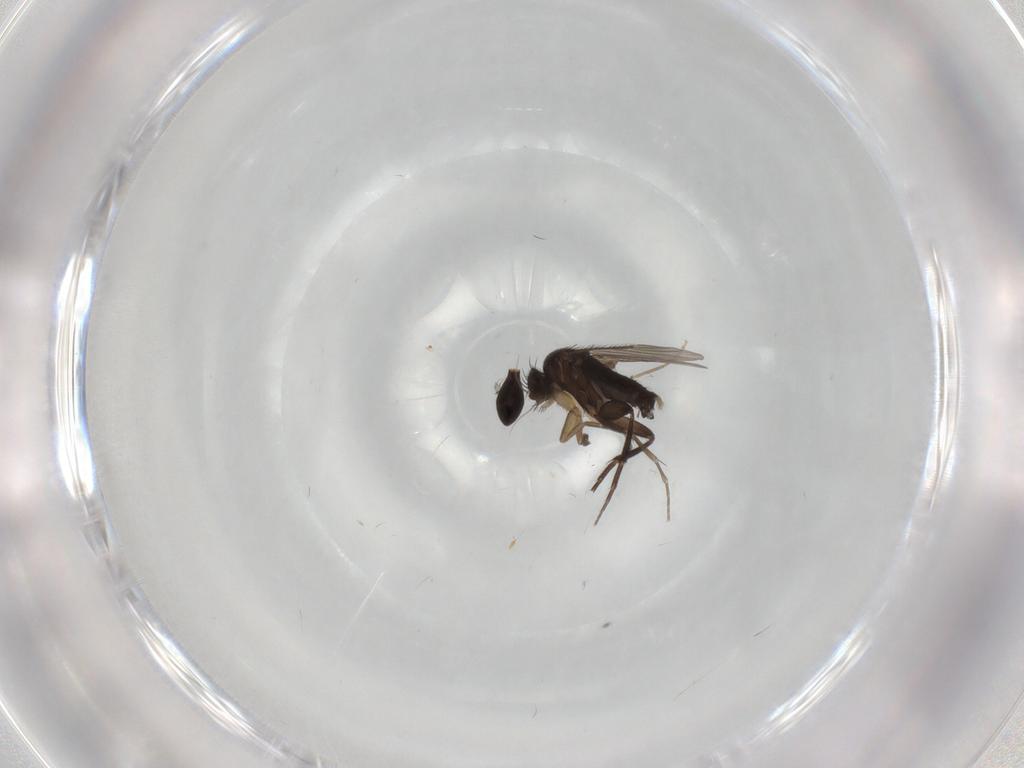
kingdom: Animalia
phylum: Arthropoda
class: Insecta
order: Diptera
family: Phoridae
